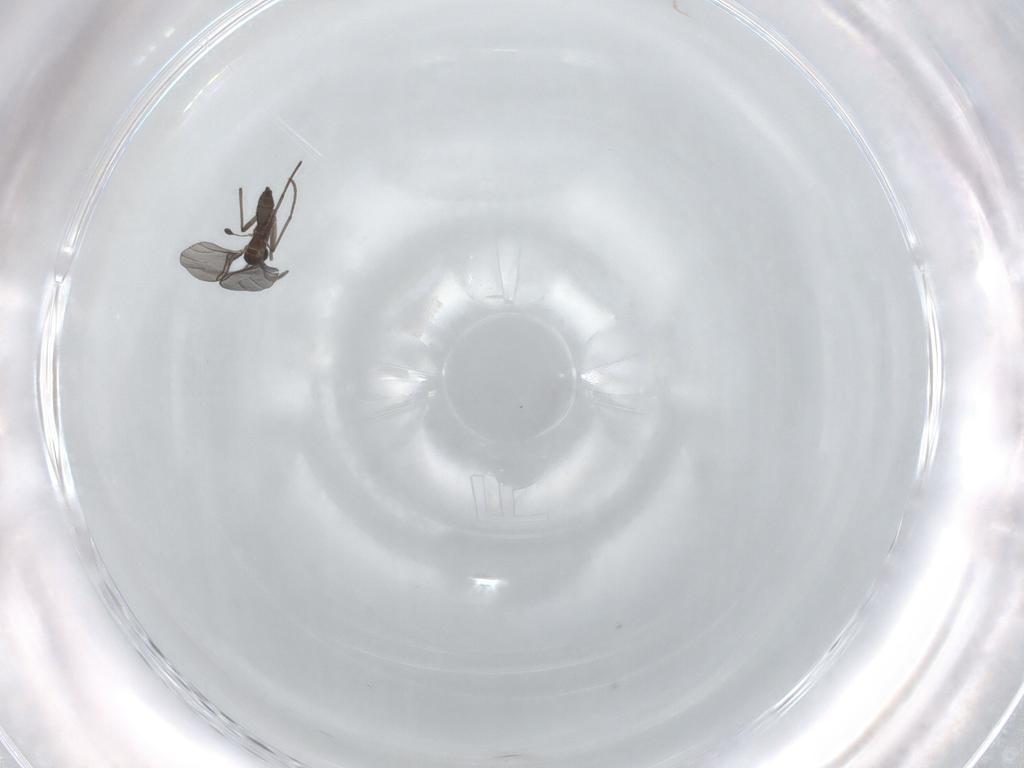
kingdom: Animalia
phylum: Arthropoda
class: Insecta
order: Diptera
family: Sciaridae
